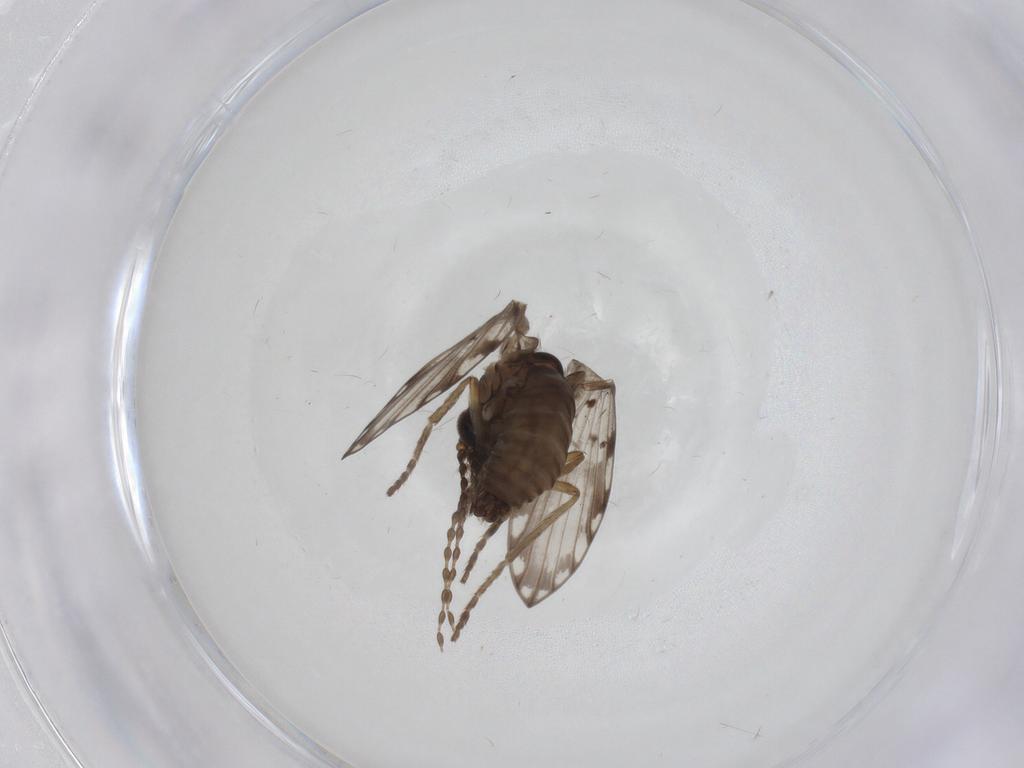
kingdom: Animalia
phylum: Arthropoda
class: Insecta
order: Diptera
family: Psychodidae
